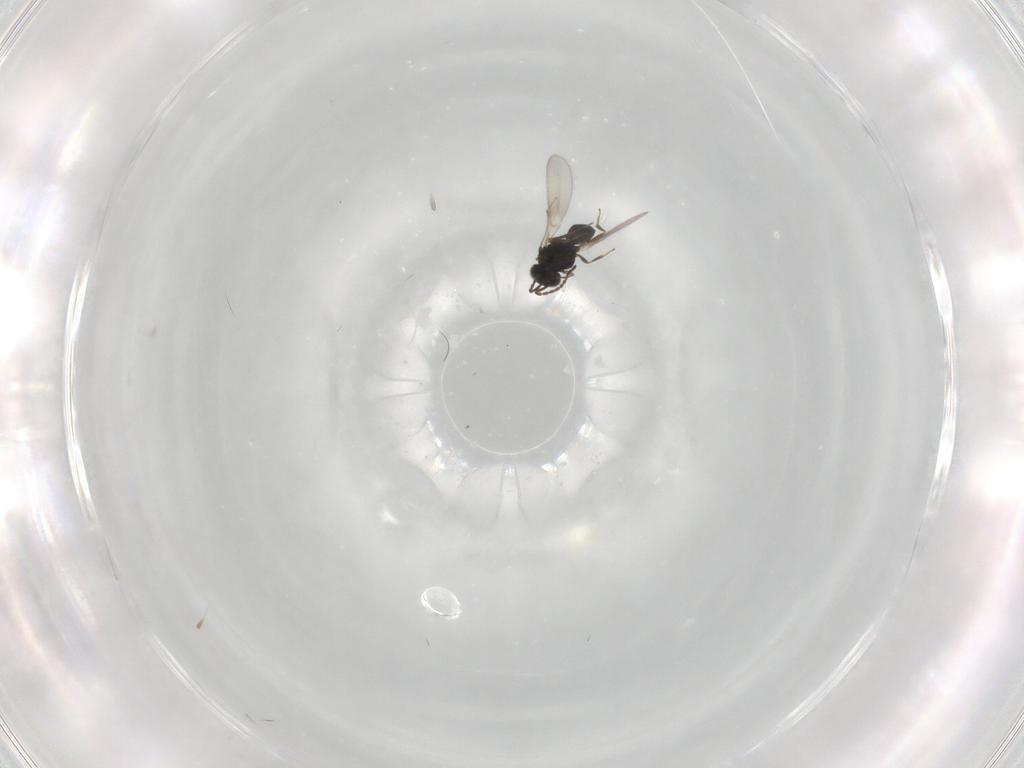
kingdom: Animalia
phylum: Arthropoda
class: Insecta
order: Hymenoptera
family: Scelionidae
